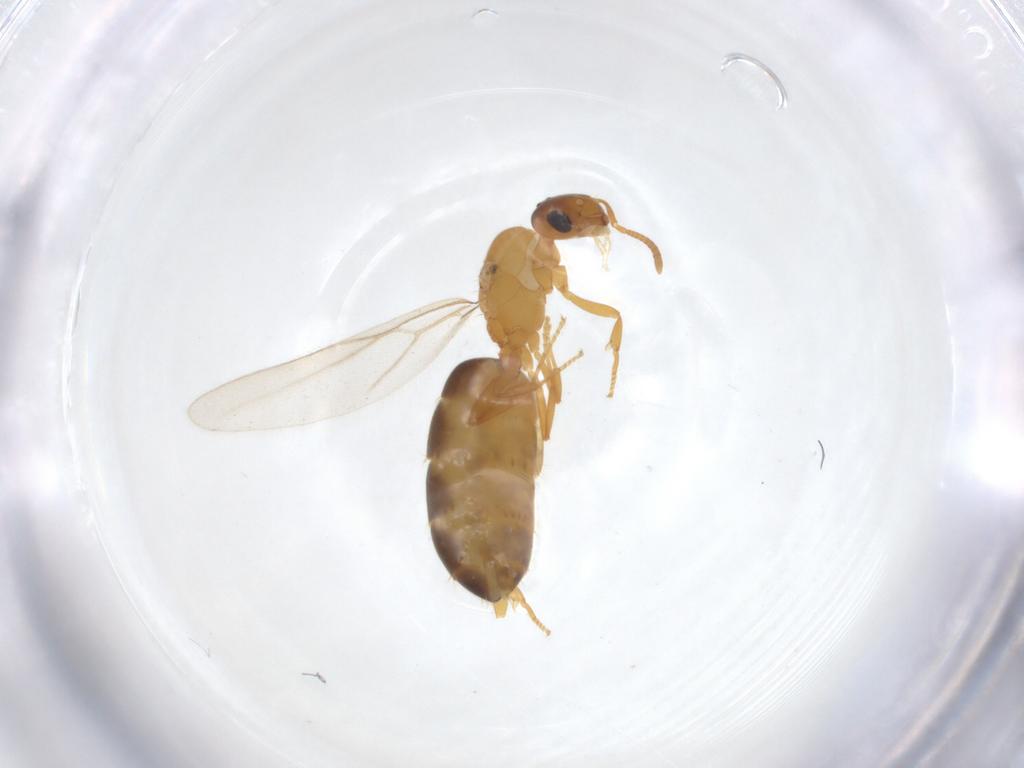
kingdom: Animalia
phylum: Arthropoda
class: Insecta
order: Hymenoptera
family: Formicidae
